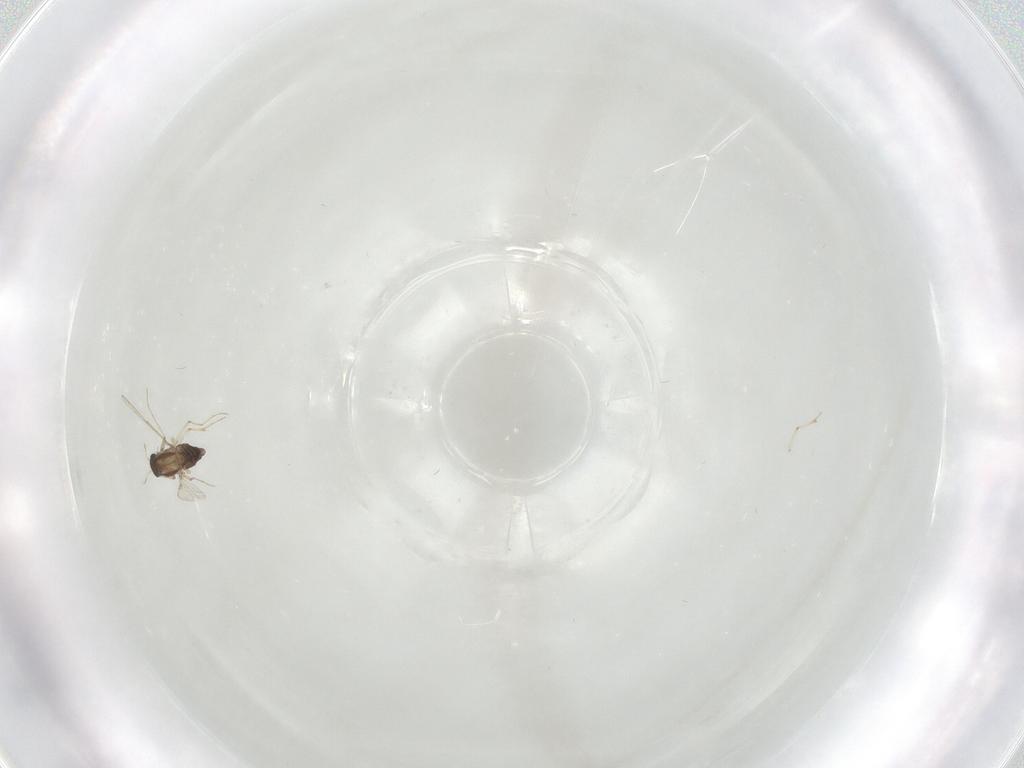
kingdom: Animalia
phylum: Arthropoda
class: Insecta
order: Diptera
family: Chironomidae
